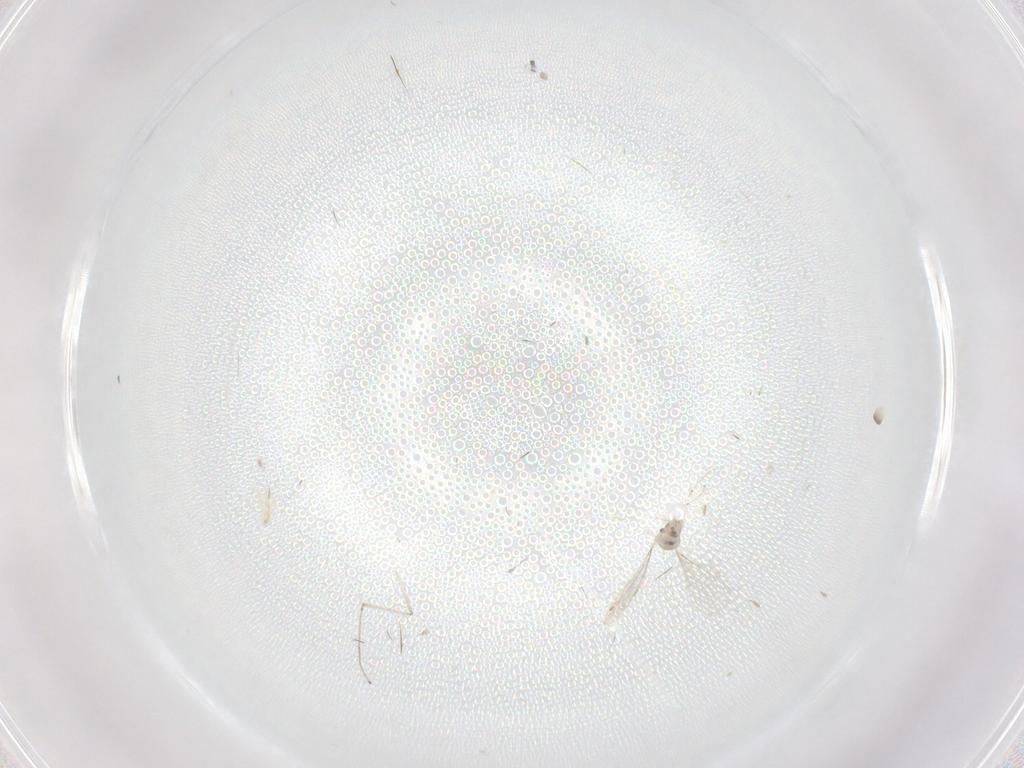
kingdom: Animalia
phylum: Arthropoda
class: Insecta
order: Diptera
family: Cecidomyiidae
